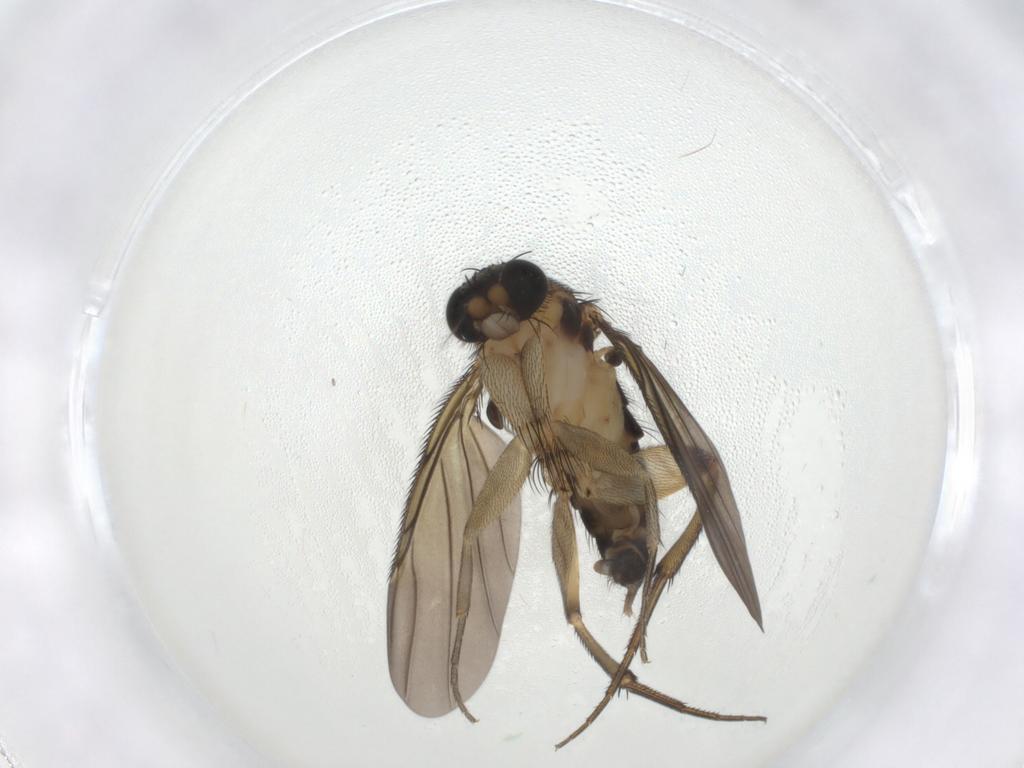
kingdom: Animalia
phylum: Arthropoda
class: Insecta
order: Diptera
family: Phoridae
